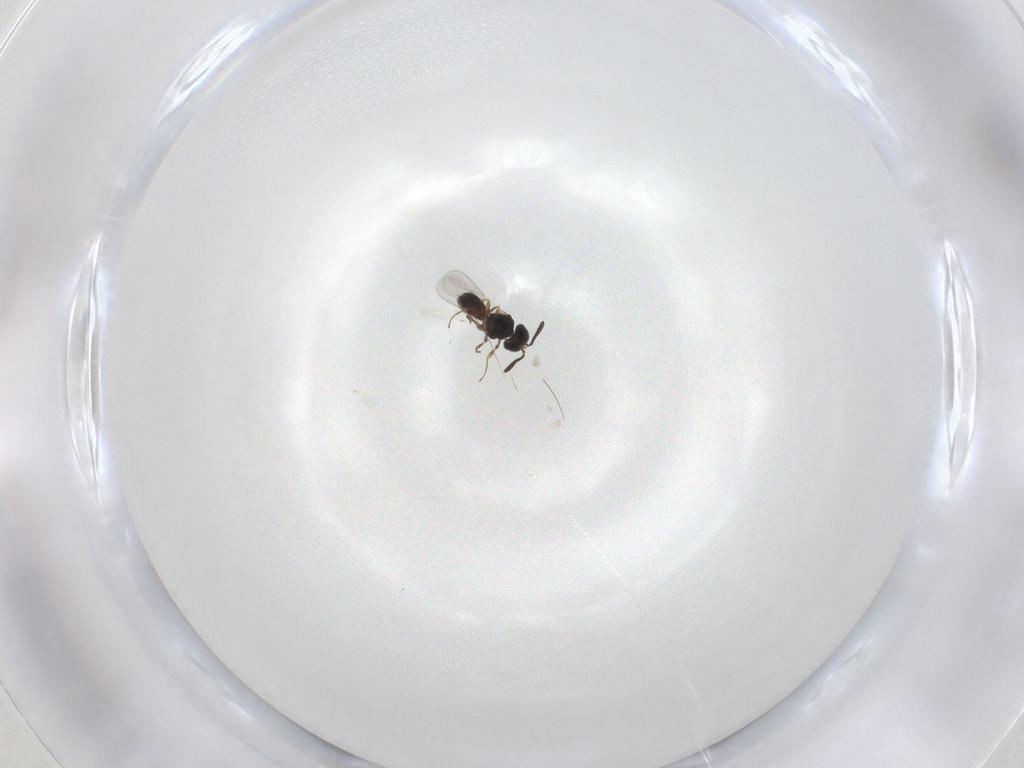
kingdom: Animalia
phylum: Arthropoda
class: Insecta
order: Hymenoptera
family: Scelionidae
